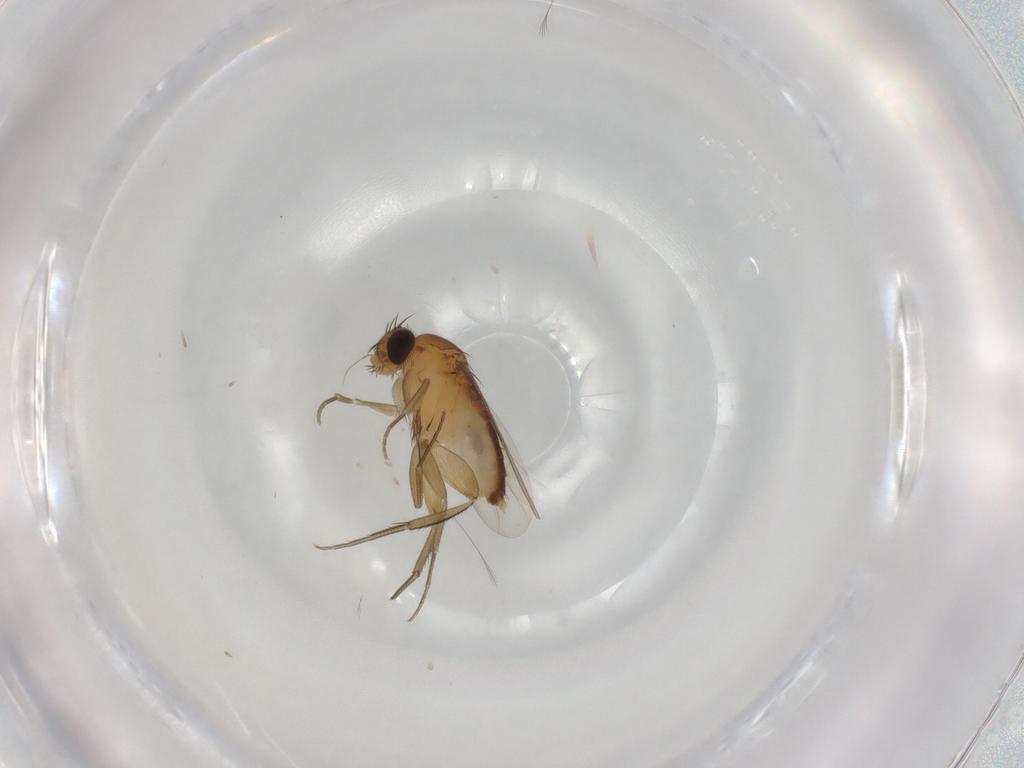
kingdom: Animalia
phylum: Arthropoda
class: Insecta
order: Diptera
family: Phoridae
